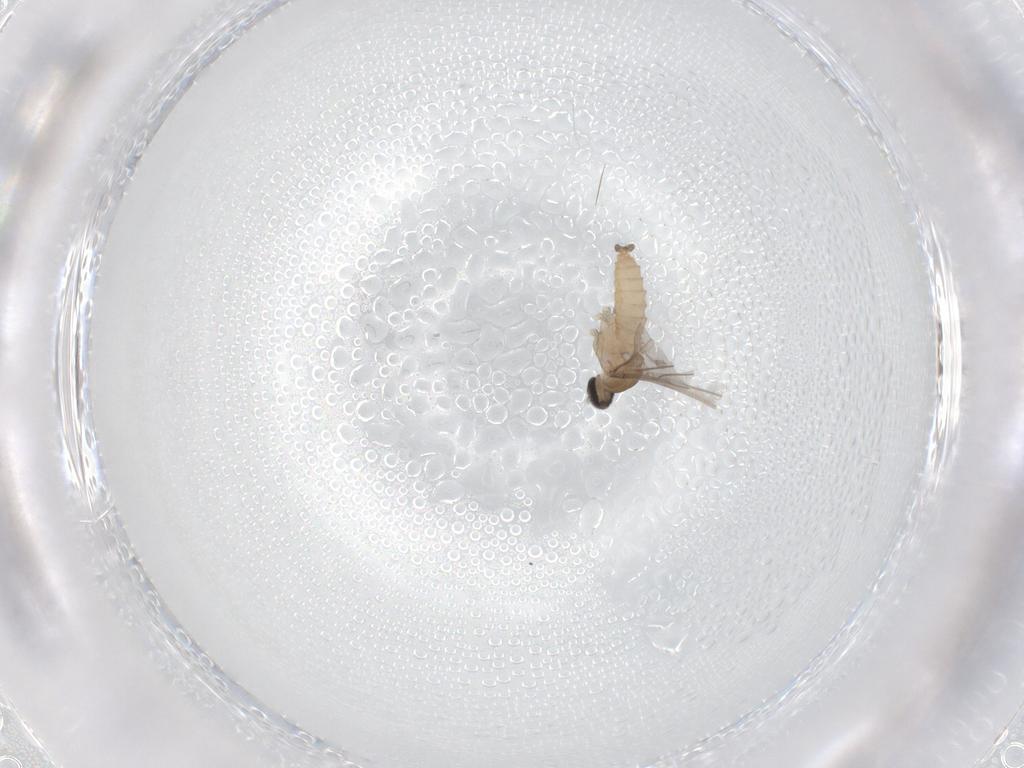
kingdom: Animalia
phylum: Arthropoda
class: Insecta
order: Diptera
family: Cecidomyiidae
